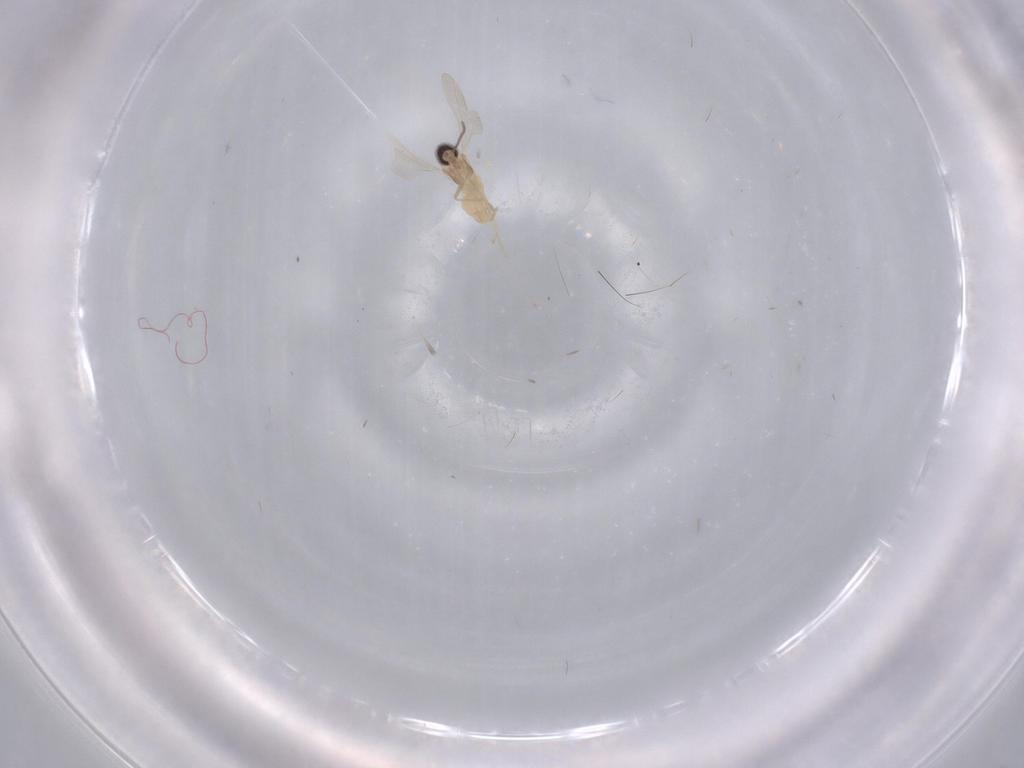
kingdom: Animalia
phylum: Arthropoda
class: Insecta
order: Diptera
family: Cecidomyiidae
